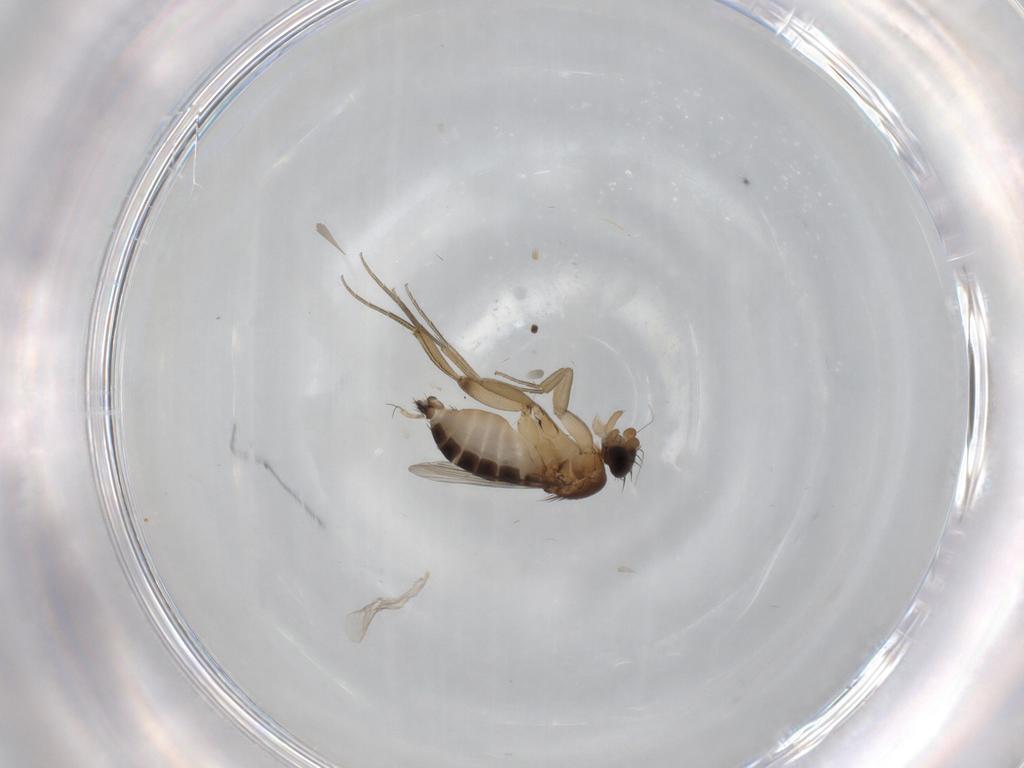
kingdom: Animalia
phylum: Arthropoda
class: Insecta
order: Diptera
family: Cecidomyiidae
